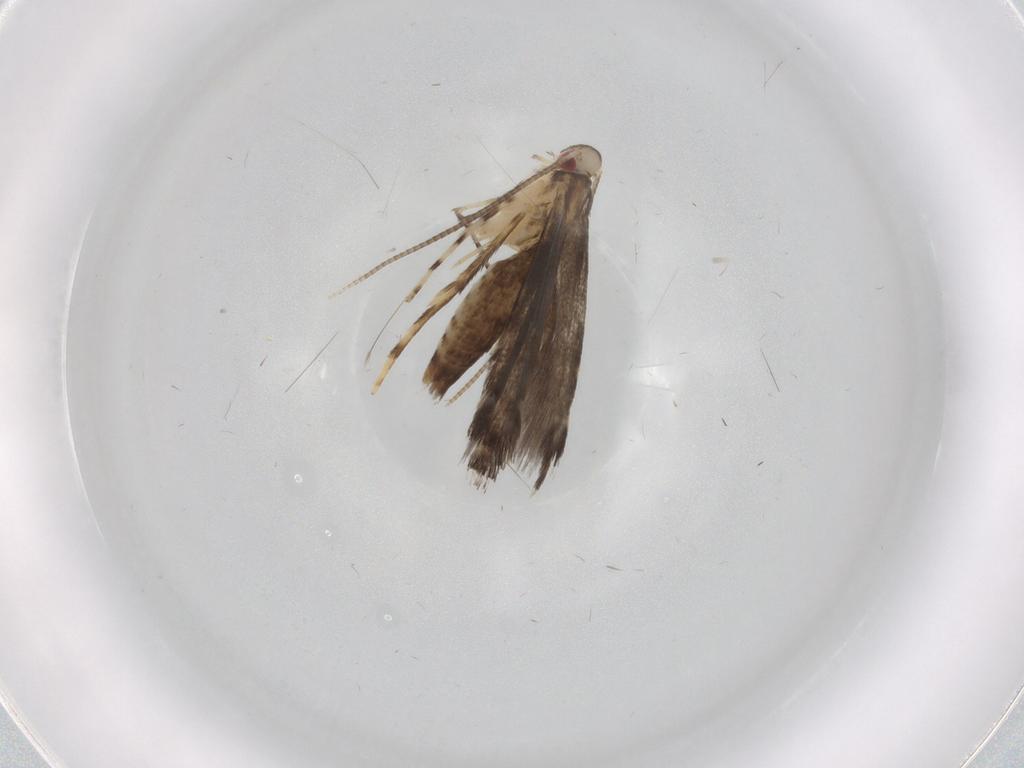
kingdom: Animalia
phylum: Arthropoda
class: Insecta
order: Lepidoptera
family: Gracillariidae
